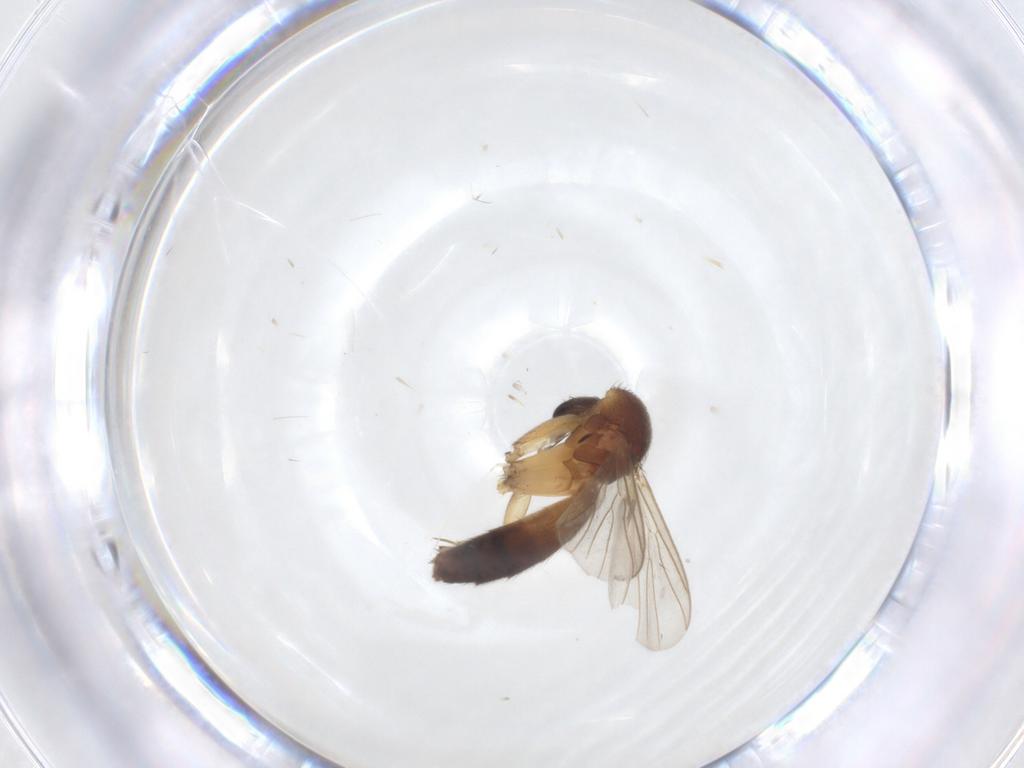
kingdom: Animalia
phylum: Arthropoda
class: Insecta
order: Diptera
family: Mycetophilidae
